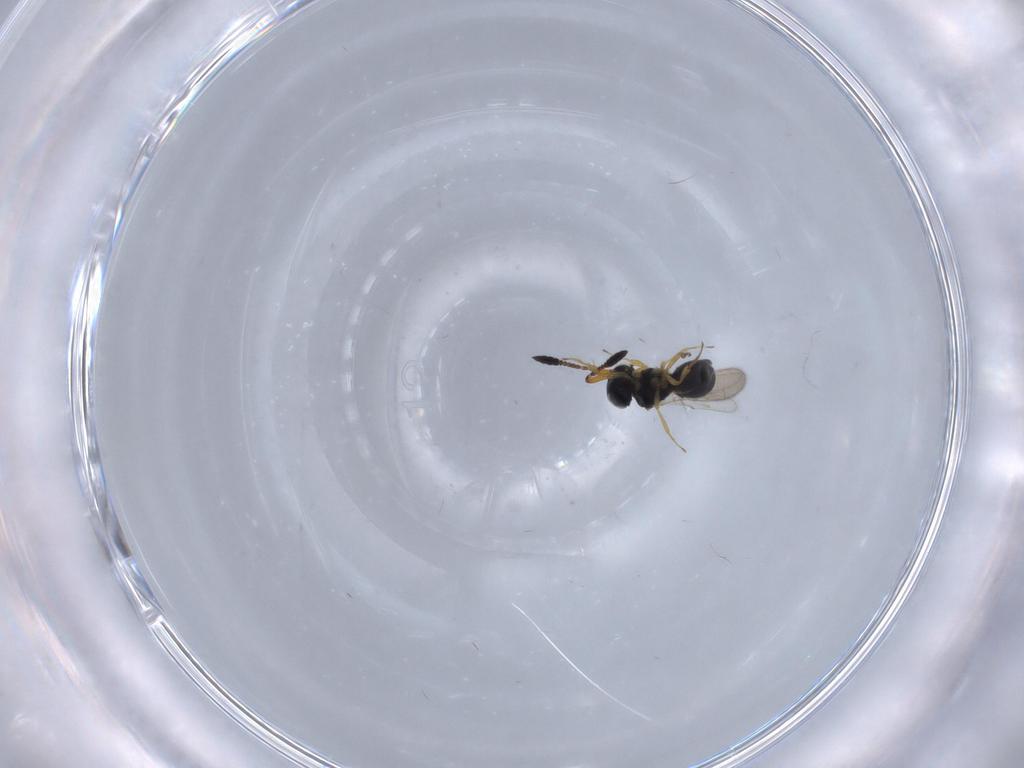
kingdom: Animalia
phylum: Arthropoda
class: Insecta
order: Hymenoptera
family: Scelionidae
